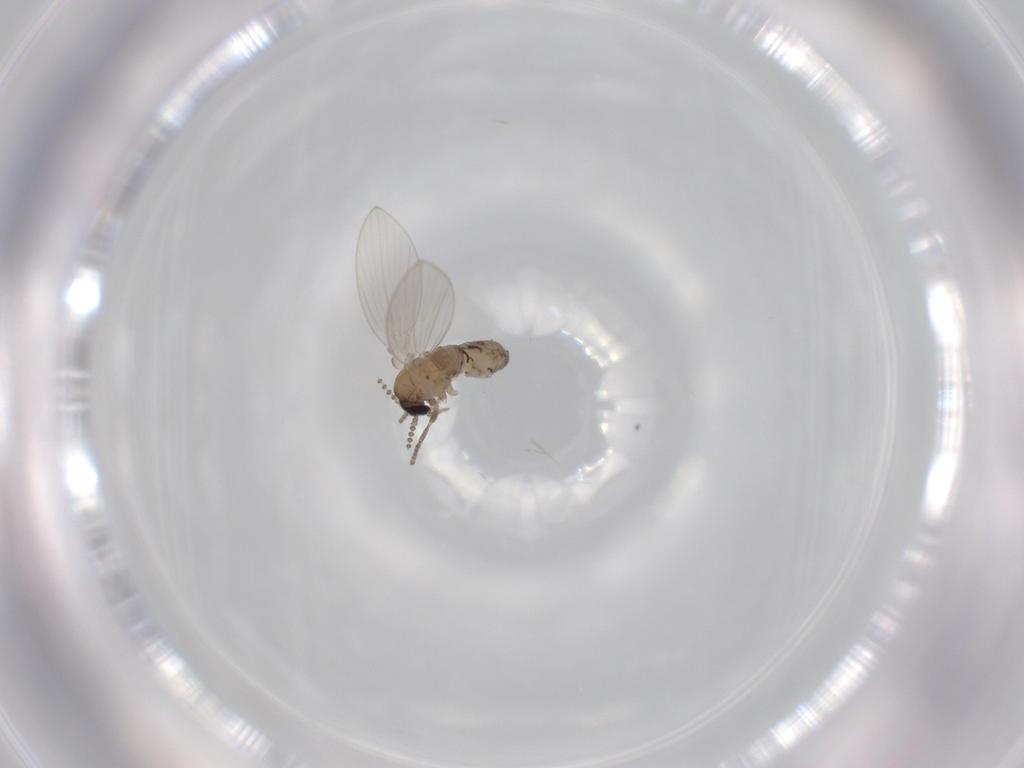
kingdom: Animalia
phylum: Arthropoda
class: Insecta
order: Diptera
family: Psychodidae
